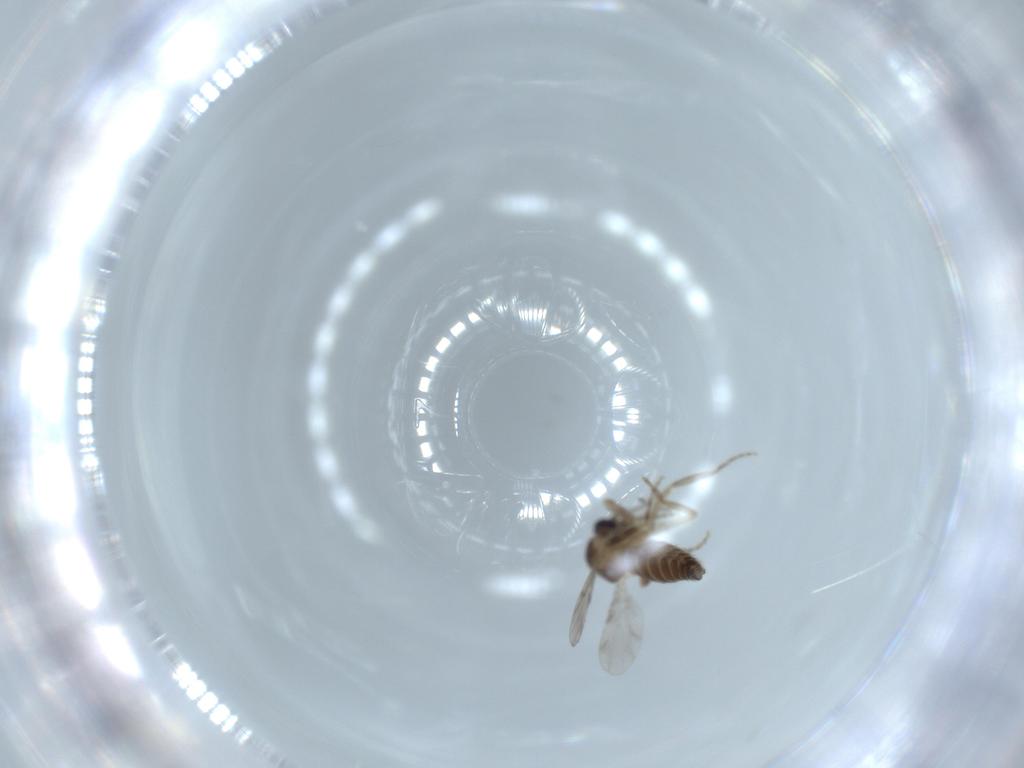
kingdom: Animalia
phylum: Arthropoda
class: Insecta
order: Diptera
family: Ceratopogonidae
